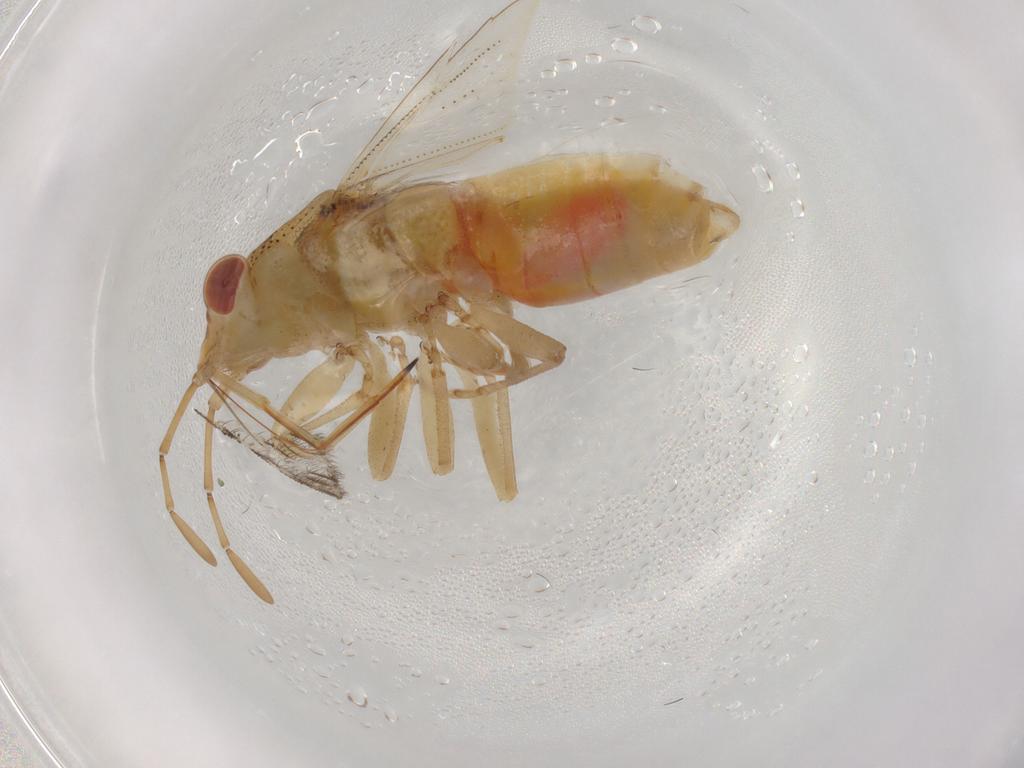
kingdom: Animalia
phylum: Arthropoda
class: Insecta
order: Hemiptera
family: Geocoridae
